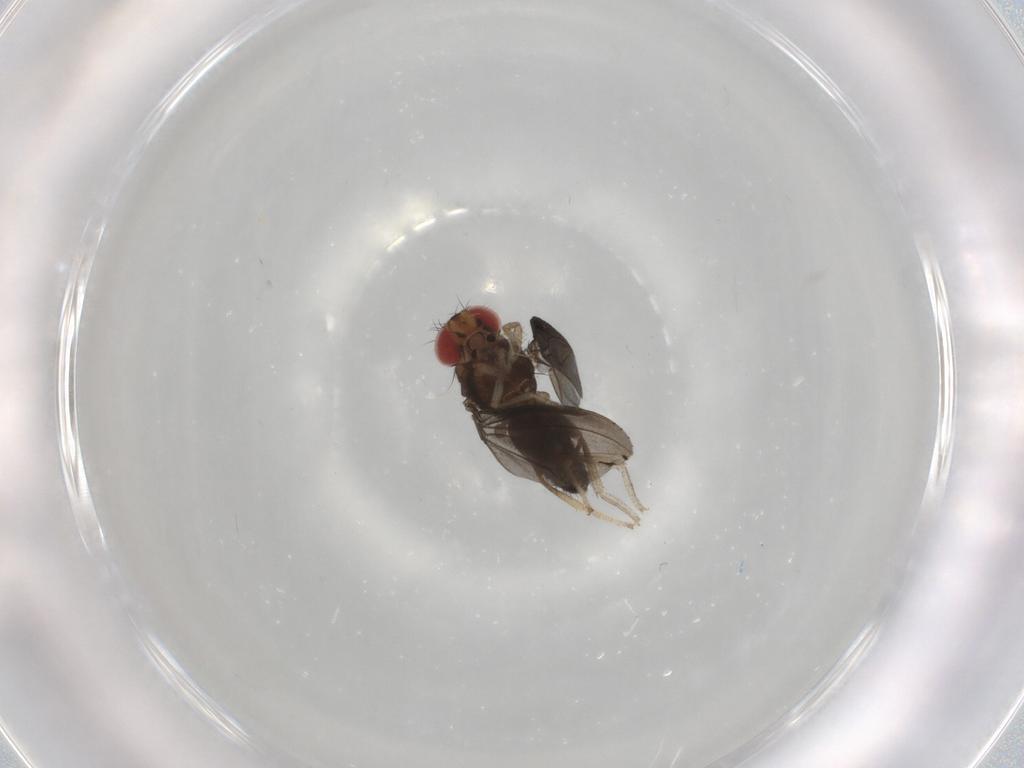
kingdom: Animalia
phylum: Arthropoda
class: Insecta
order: Diptera
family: Drosophilidae
